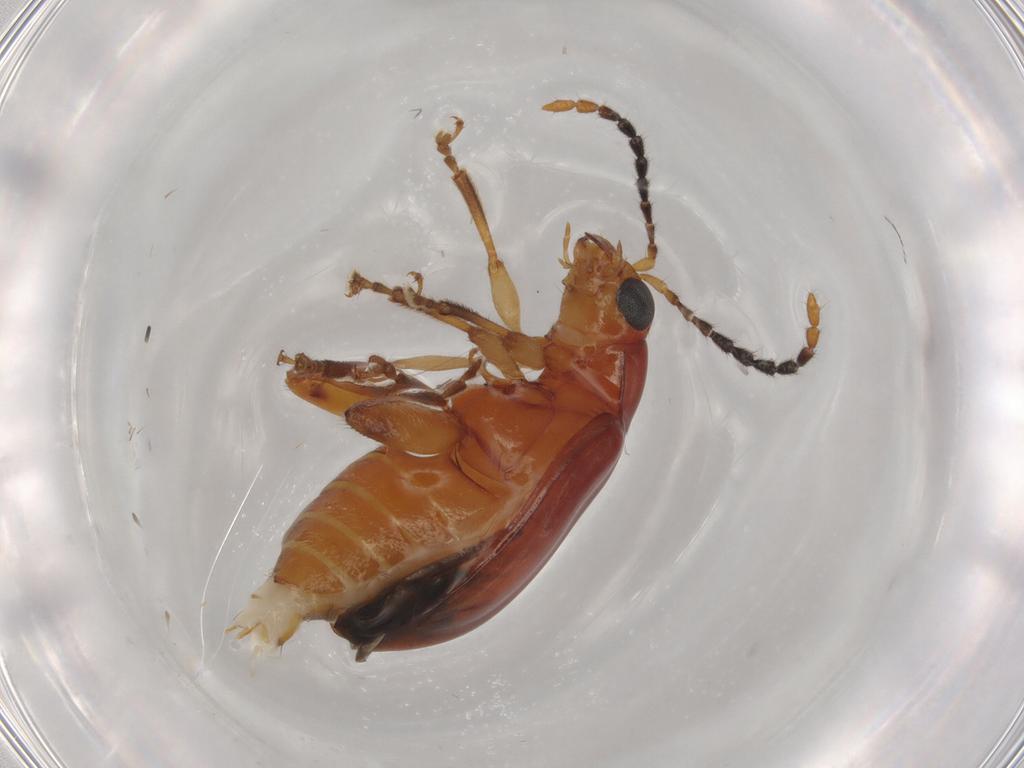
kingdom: Animalia
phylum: Arthropoda
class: Insecta
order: Coleoptera
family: Chrysomelidae
